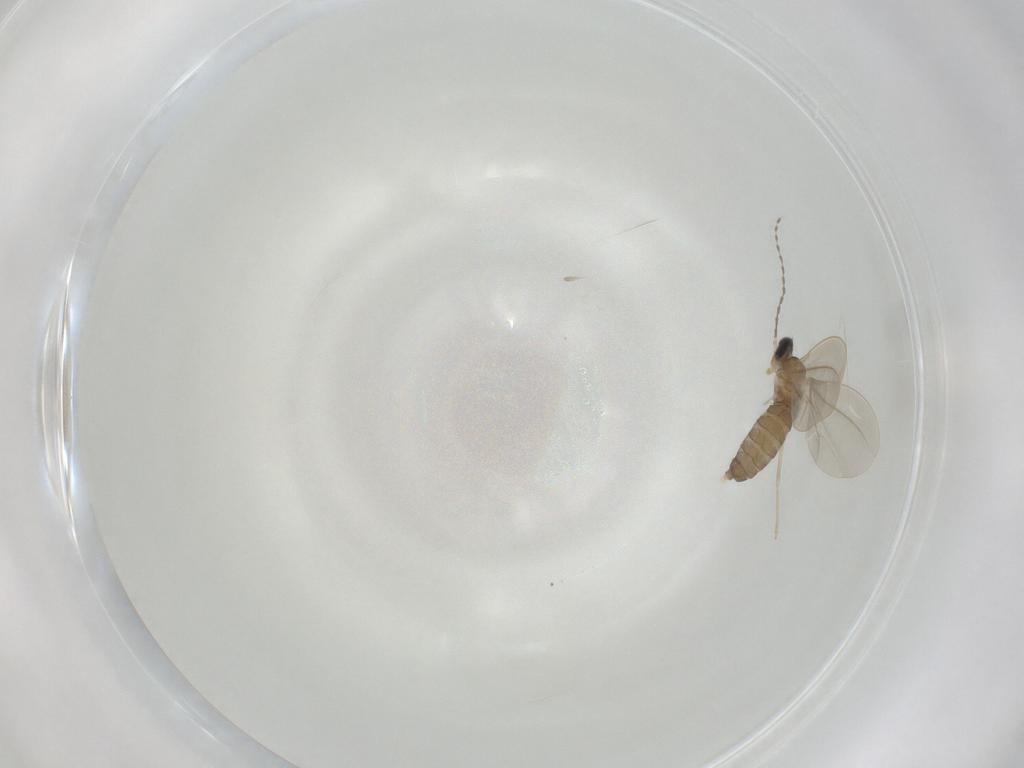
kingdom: Animalia
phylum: Arthropoda
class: Insecta
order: Diptera
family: Cecidomyiidae
